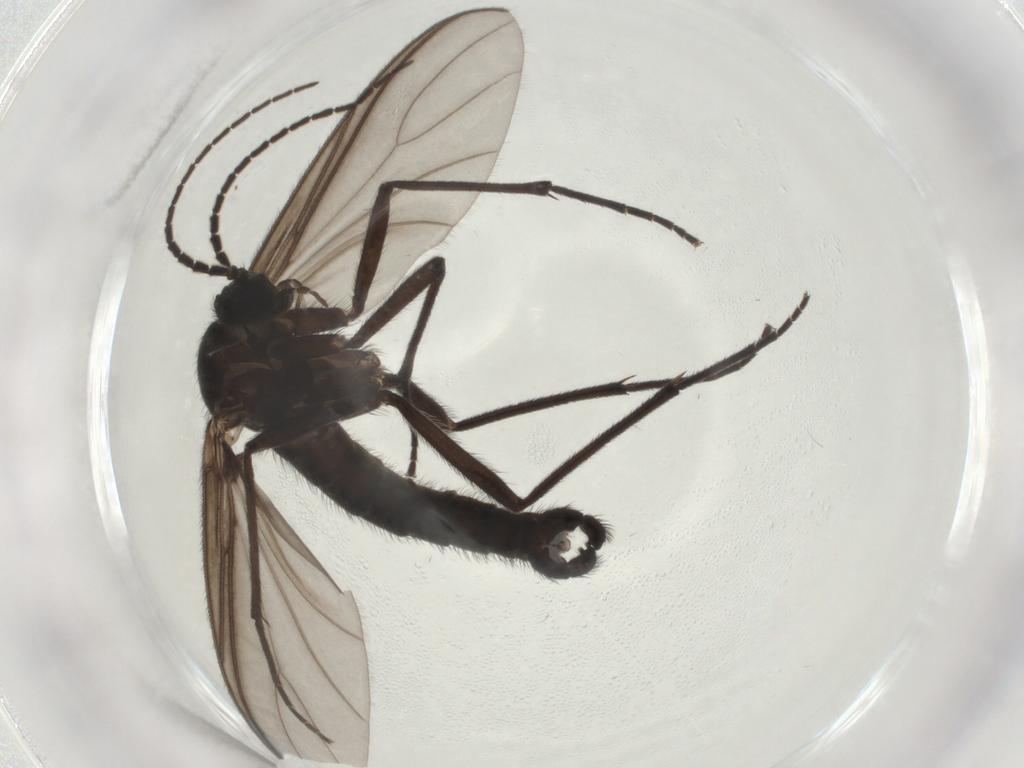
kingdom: Animalia
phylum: Arthropoda
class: Insecta
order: Diptera
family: Sciaridae
